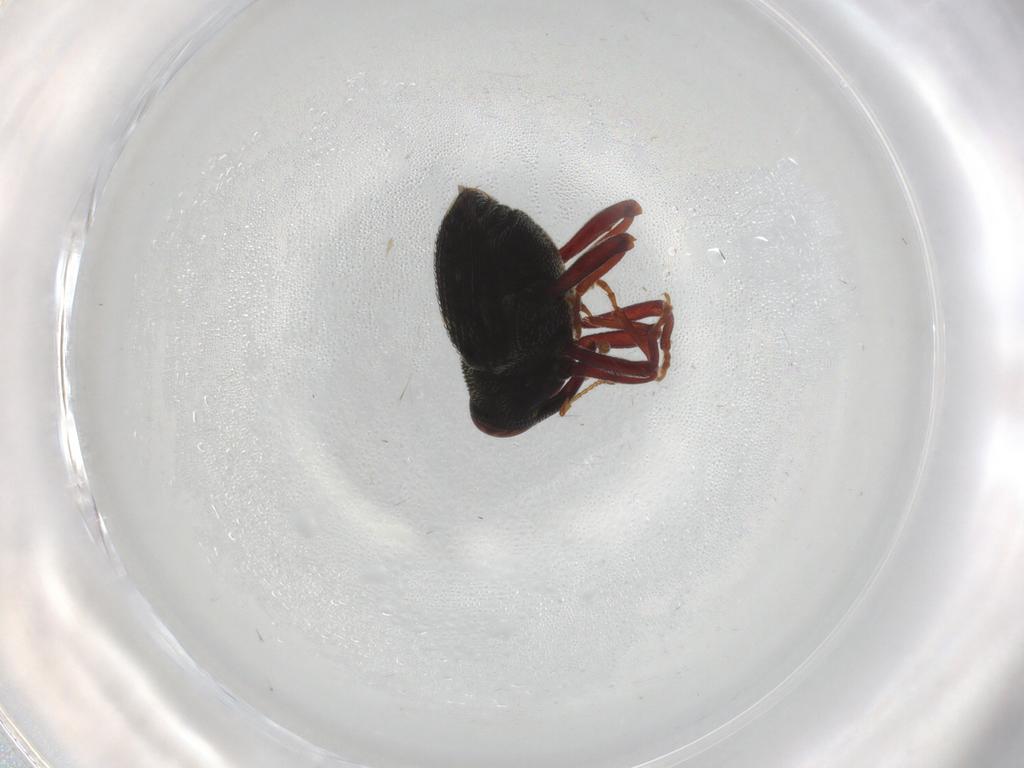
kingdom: Animalia
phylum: Arthropoda
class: Insecta
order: Coleoptera
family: Curculionidae
